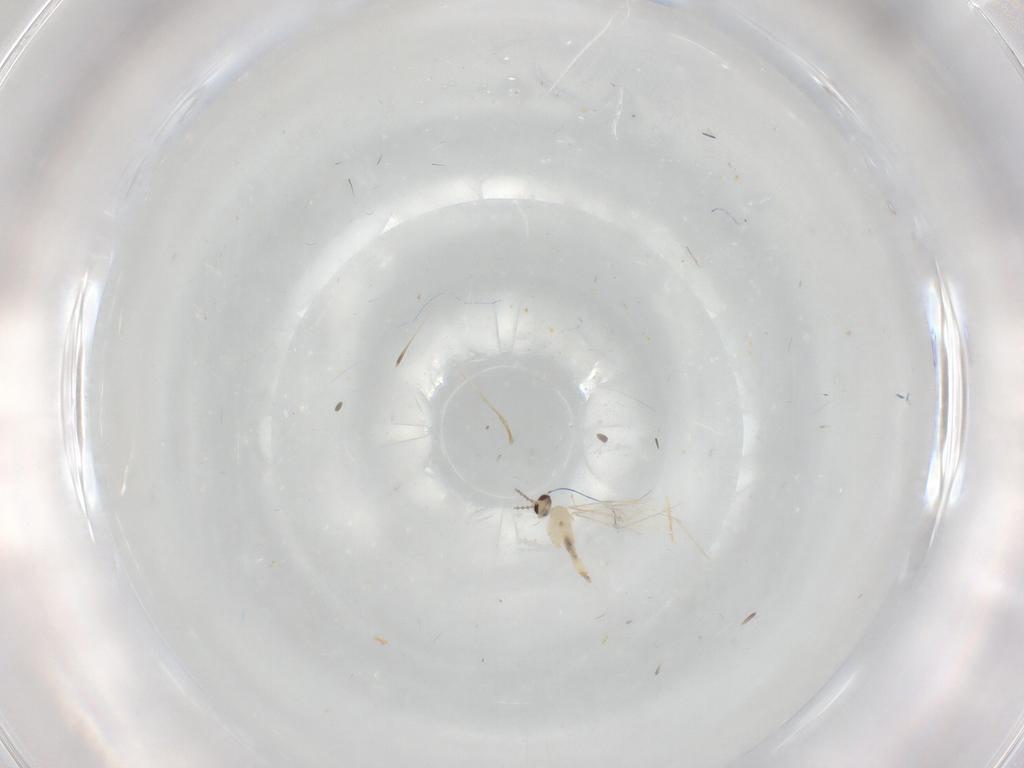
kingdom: Animalia
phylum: Arthropoda
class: Insecta
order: Diptera
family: Cecidomyiidae
